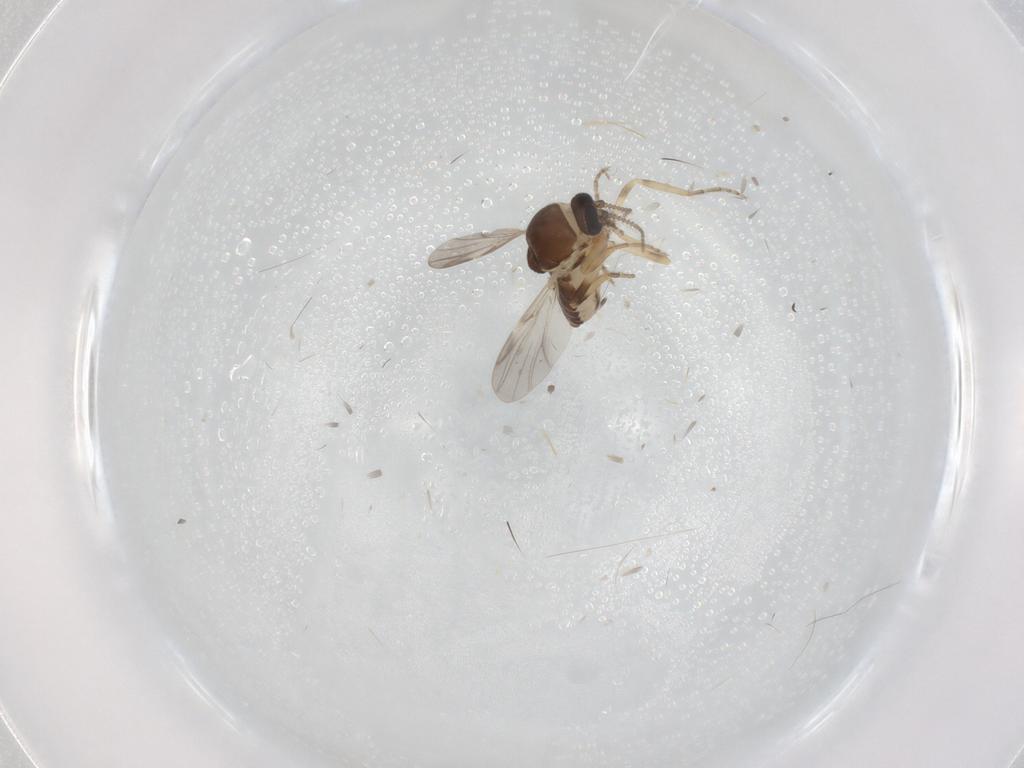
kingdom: Animalia
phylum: Arthropoda
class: Insecta
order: Diptera
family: Ceratopogonidae
